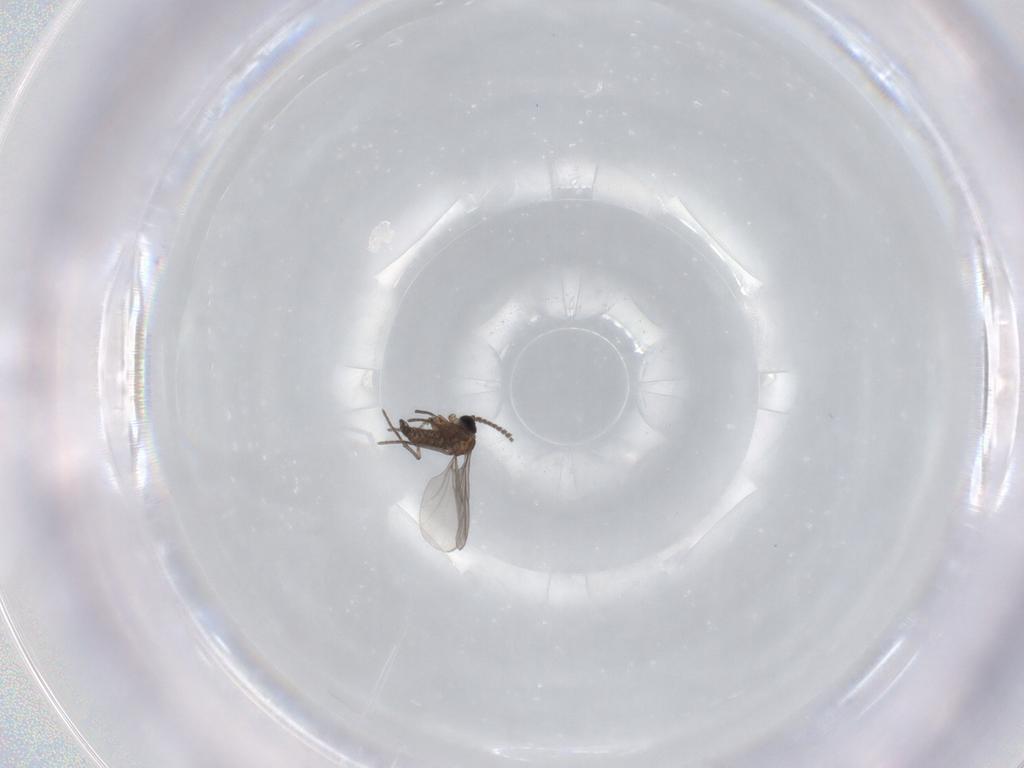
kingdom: Animalia
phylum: Arthropoda
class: Insecta
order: Diptera
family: Sciaridae
